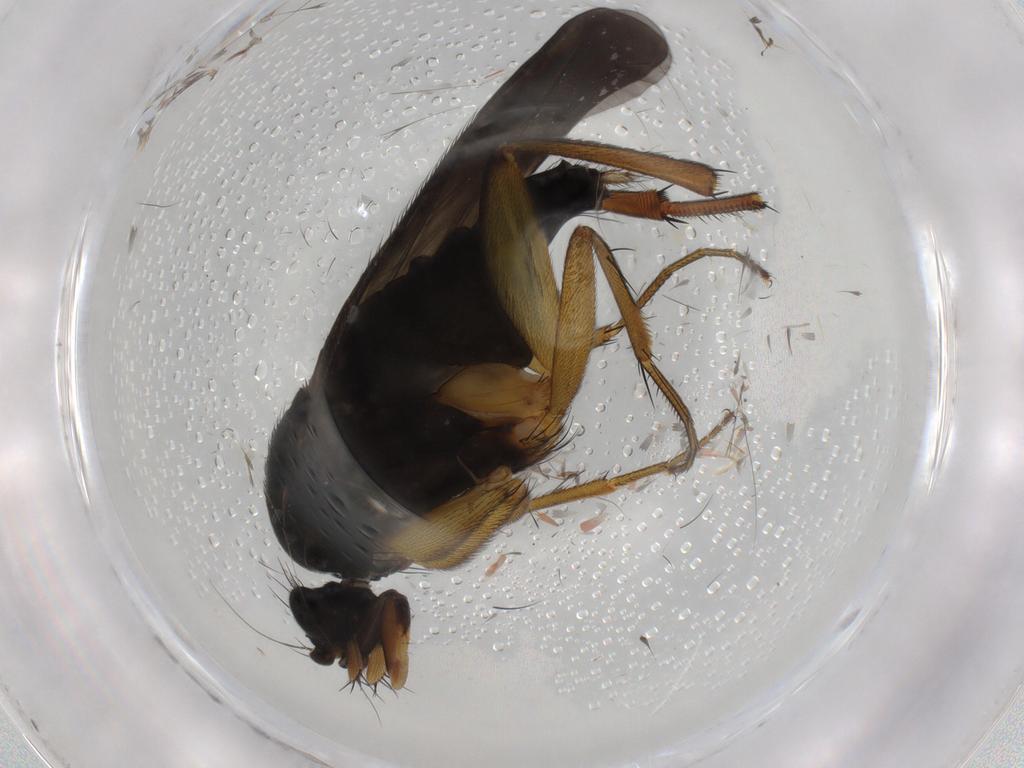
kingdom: Animalia
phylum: Arthropoda
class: Insecta
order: Diptera
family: Phoridae
